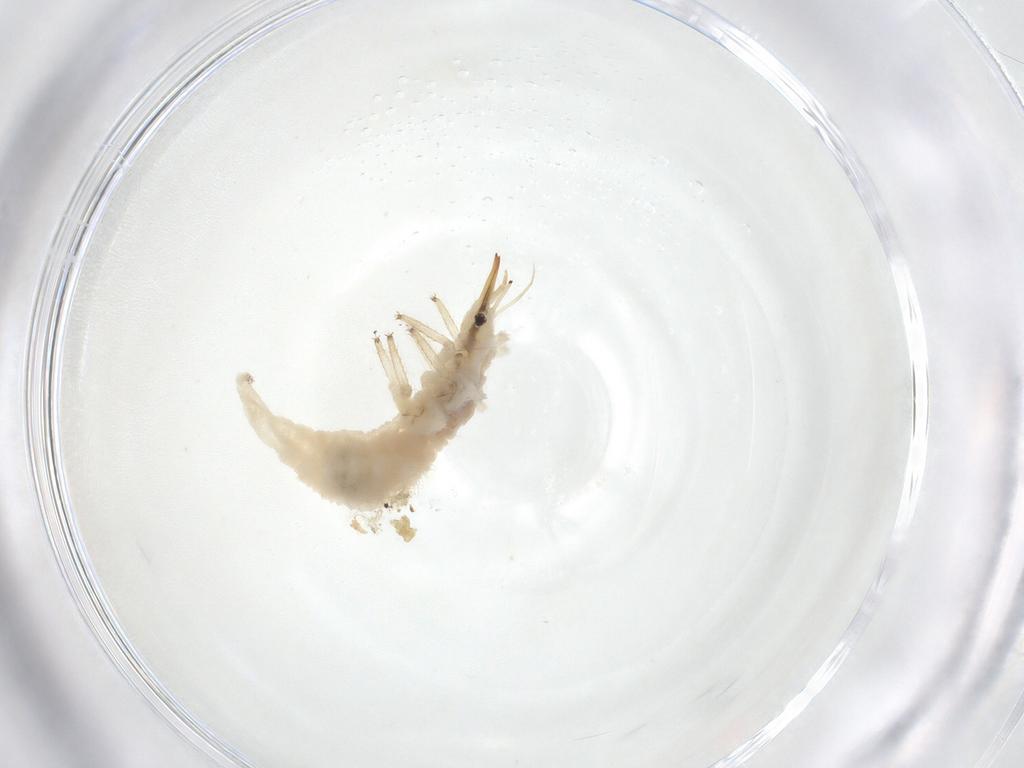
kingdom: Animalia
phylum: Arthropoda
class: Insecta
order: Neuroptera
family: Chrysopidae
